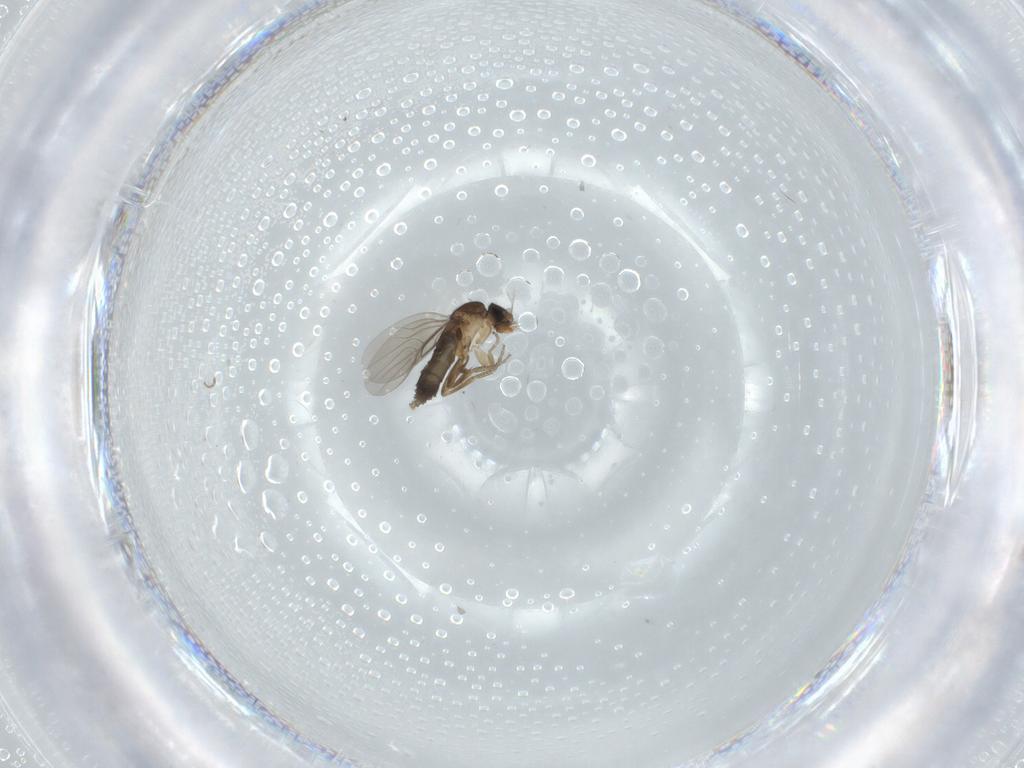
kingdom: Animalia
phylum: Arthropoda
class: Insecta
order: Diptera
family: Phoridae
